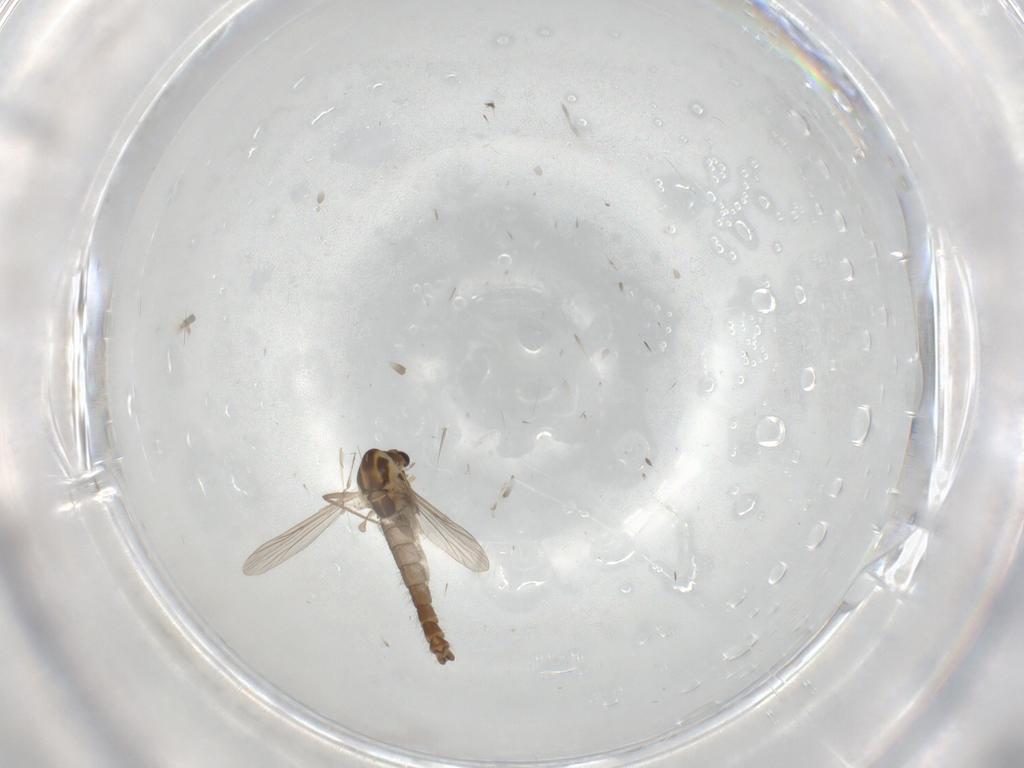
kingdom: Animalia
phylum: Arthropoda
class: Insecta
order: Diptera
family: Chironomidae
